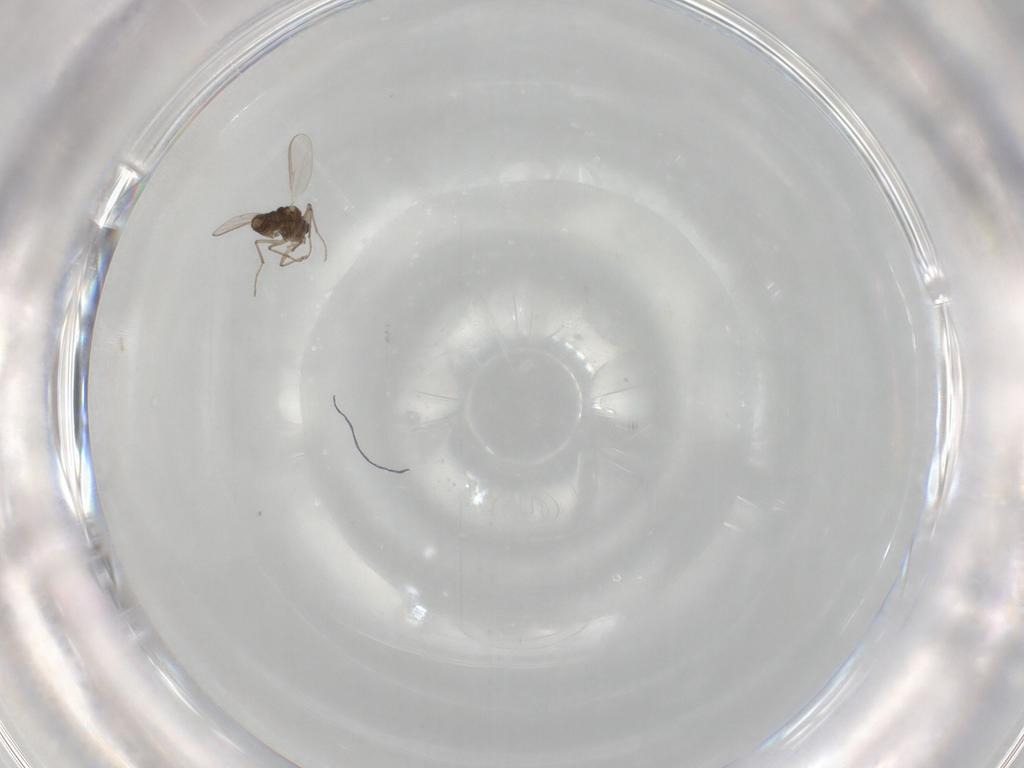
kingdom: Animalia
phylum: Arthropoda
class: Insecta
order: Diptera
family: Chironomidae
